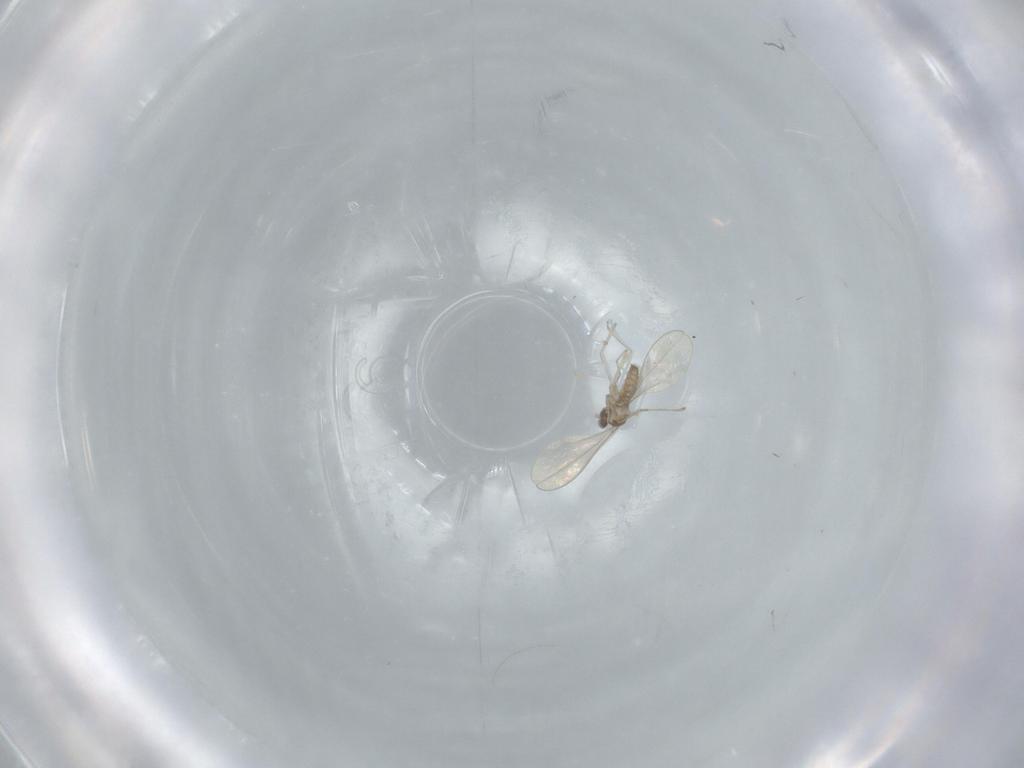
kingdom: Animalia
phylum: Arthropoda
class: Insecta
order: Diptera
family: Cecidomyiidae
